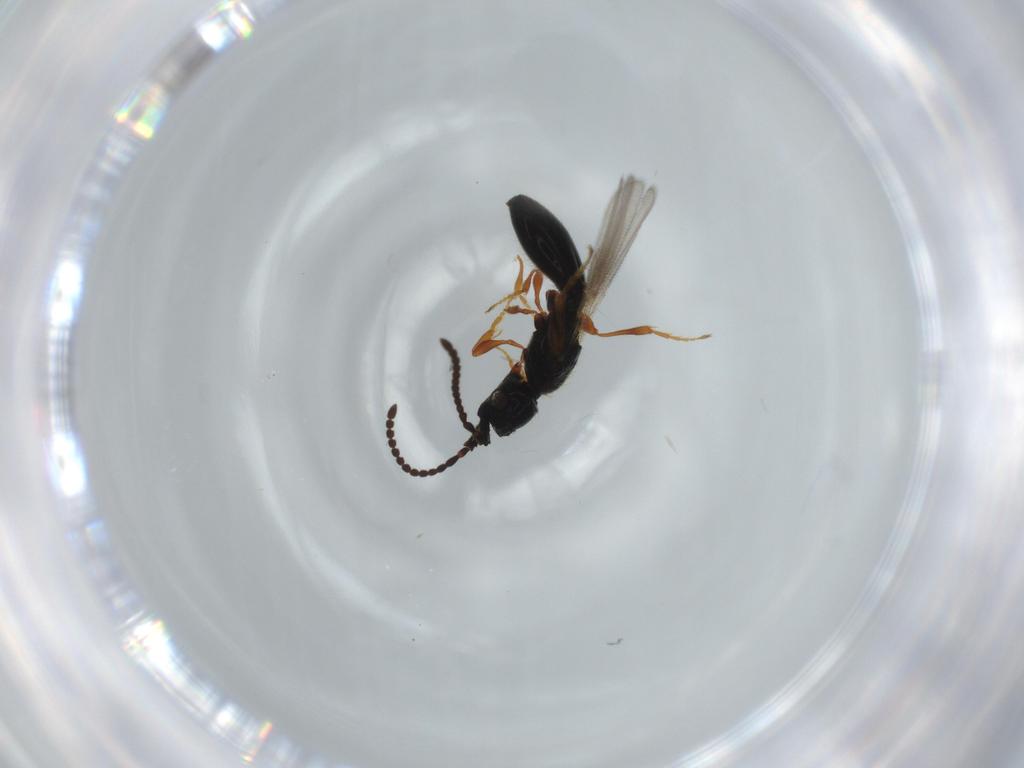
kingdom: Animalia
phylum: Arthropoda
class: Insecta
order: Hymenoptera
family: Diapriidae
